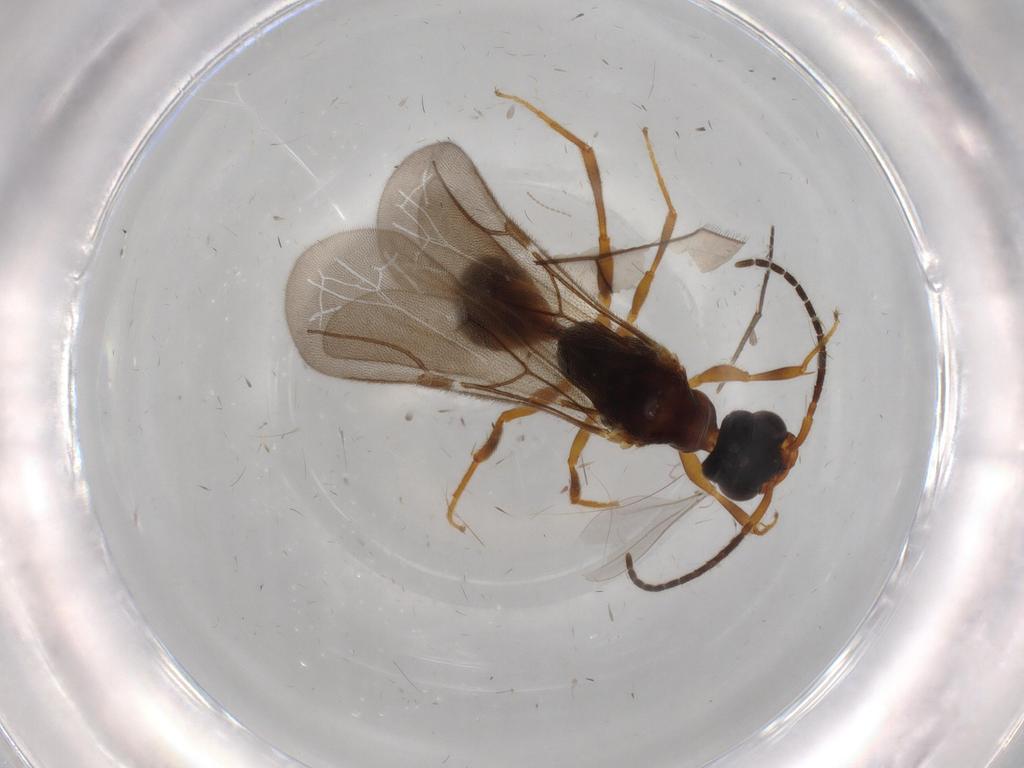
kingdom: Animalia
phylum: Arthropoda
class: Insecta
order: Hymenoptera
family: Bethylidae
